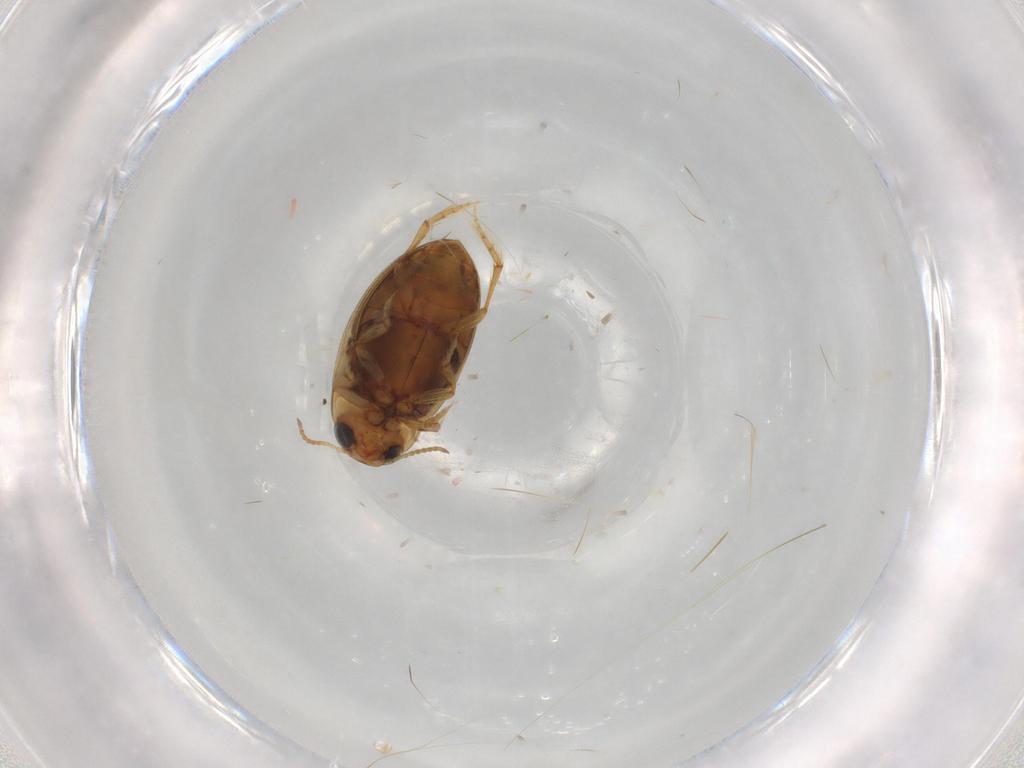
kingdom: Animalia
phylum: Arthropoda
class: Insecta
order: Coleoptera
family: Dytiscidae
